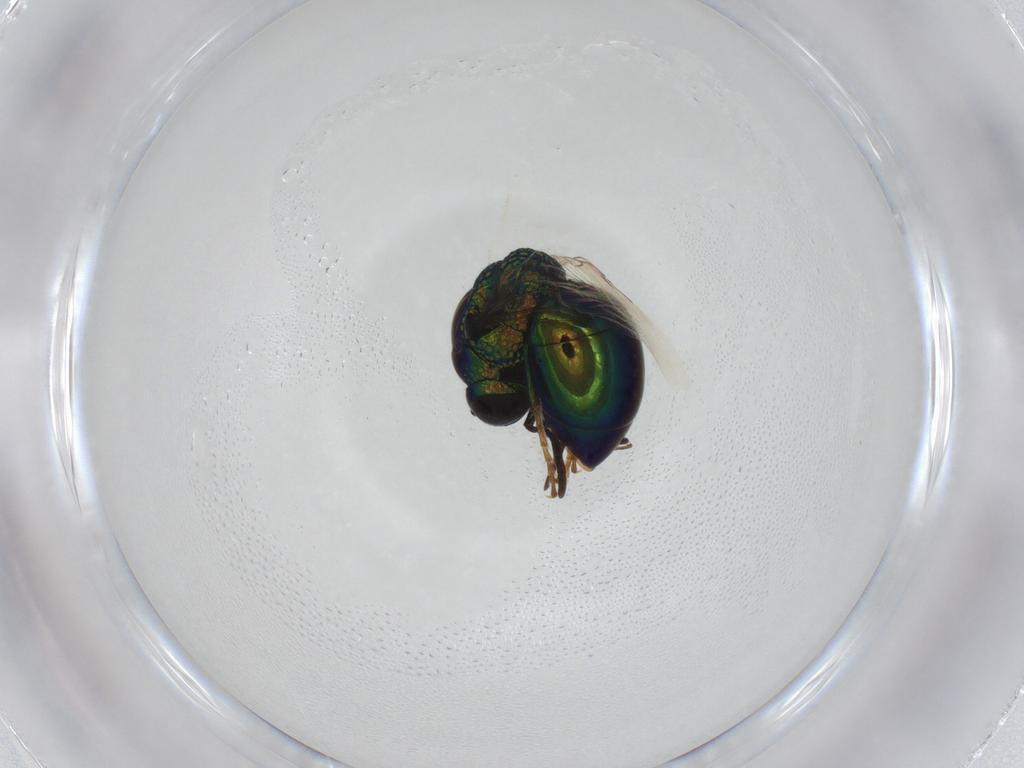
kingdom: Animalia
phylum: Arthropoda
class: Insecta
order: Hymenoptera
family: Chrysididae
